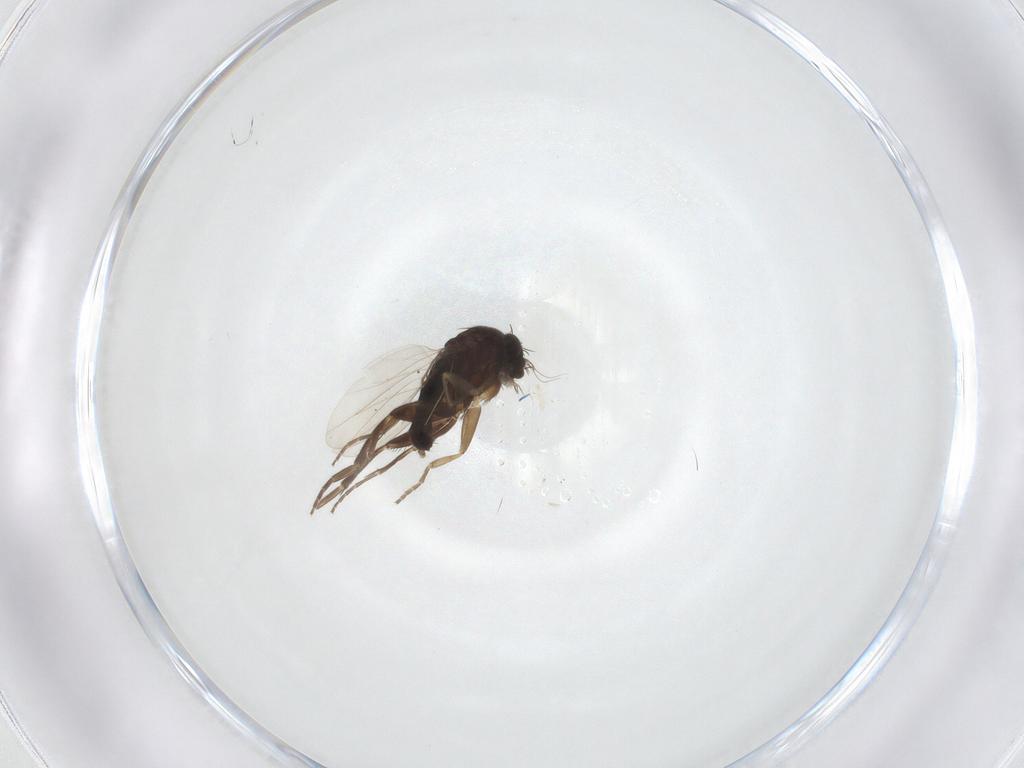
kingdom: Animalia
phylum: Arthropoda
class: Insecta
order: Diptera
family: Phoridae
